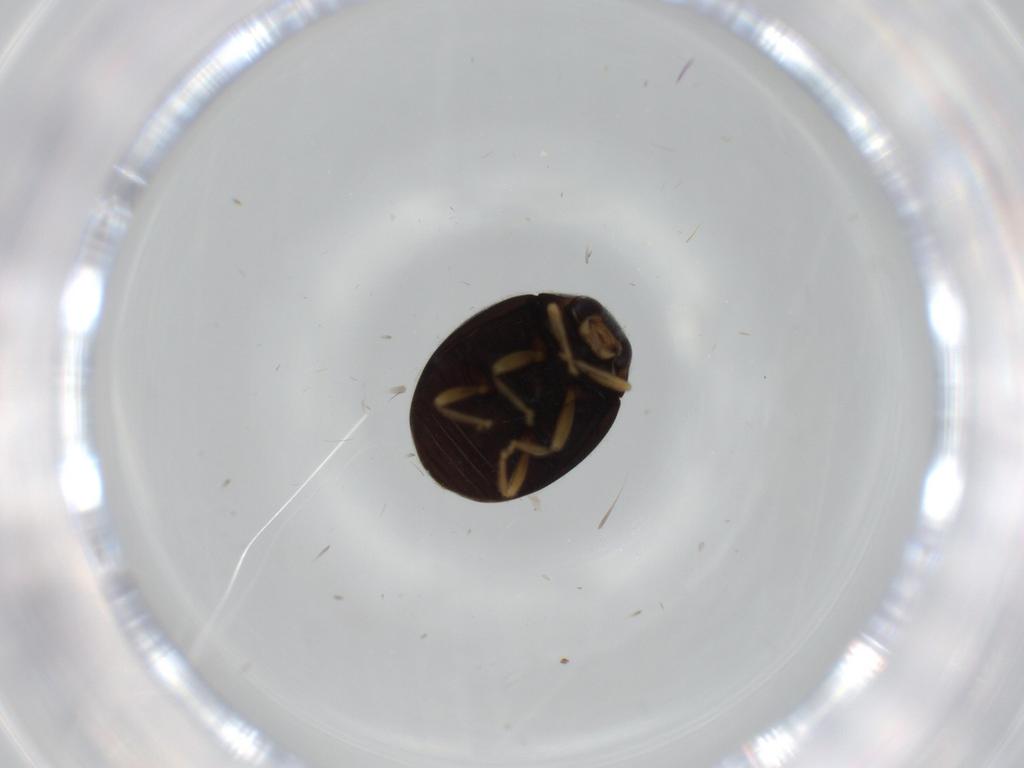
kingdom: Animalia
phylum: Arthropoda
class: Insecta
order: Coleoptera
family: Coccinellidae
